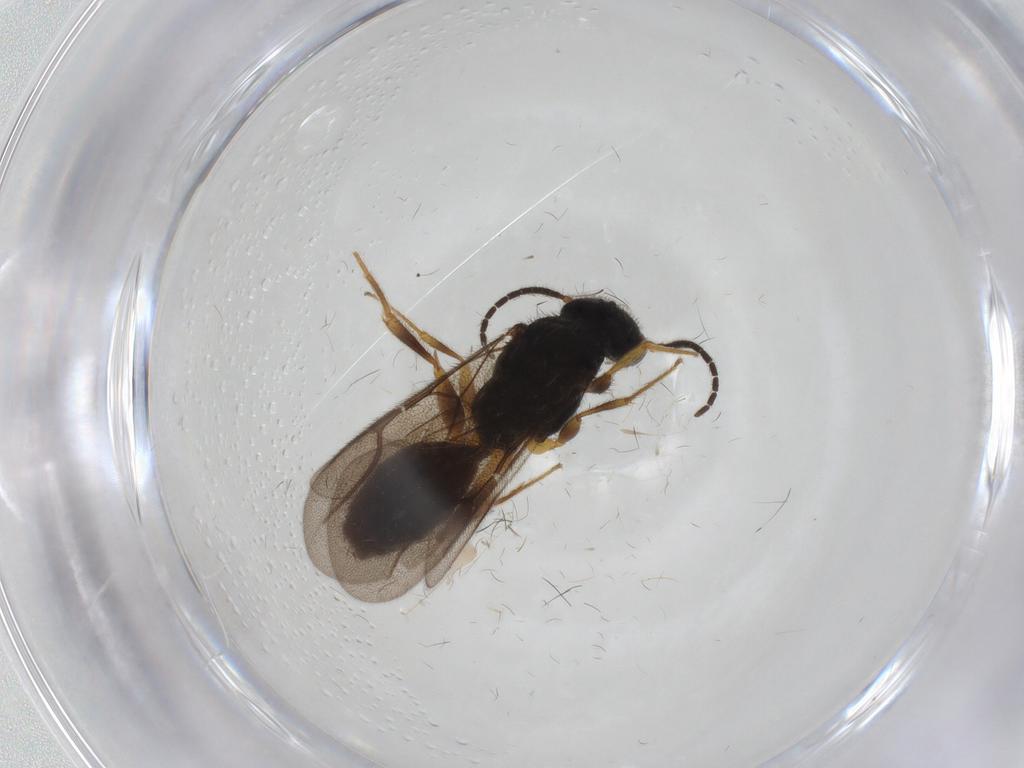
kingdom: Animalia
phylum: Arthropoda
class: Insecta
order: Hymenoptera
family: Bethylidae
